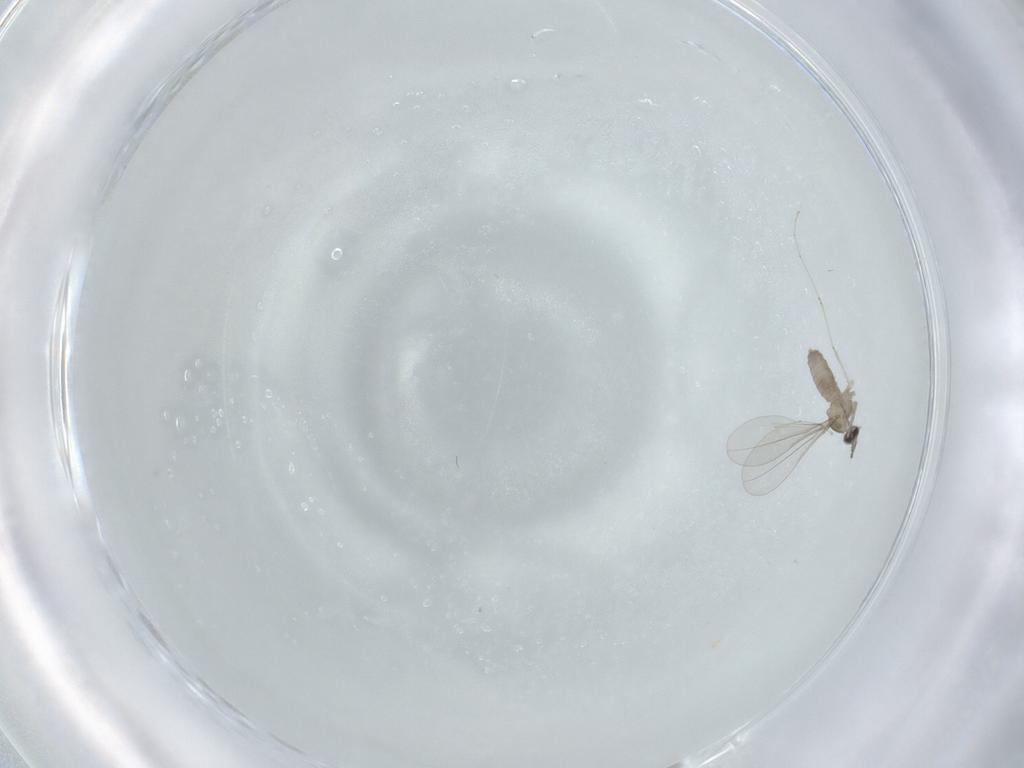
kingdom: Animalia
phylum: Arthropoda
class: Insecta
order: Diptera
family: Cecidomyiidae
